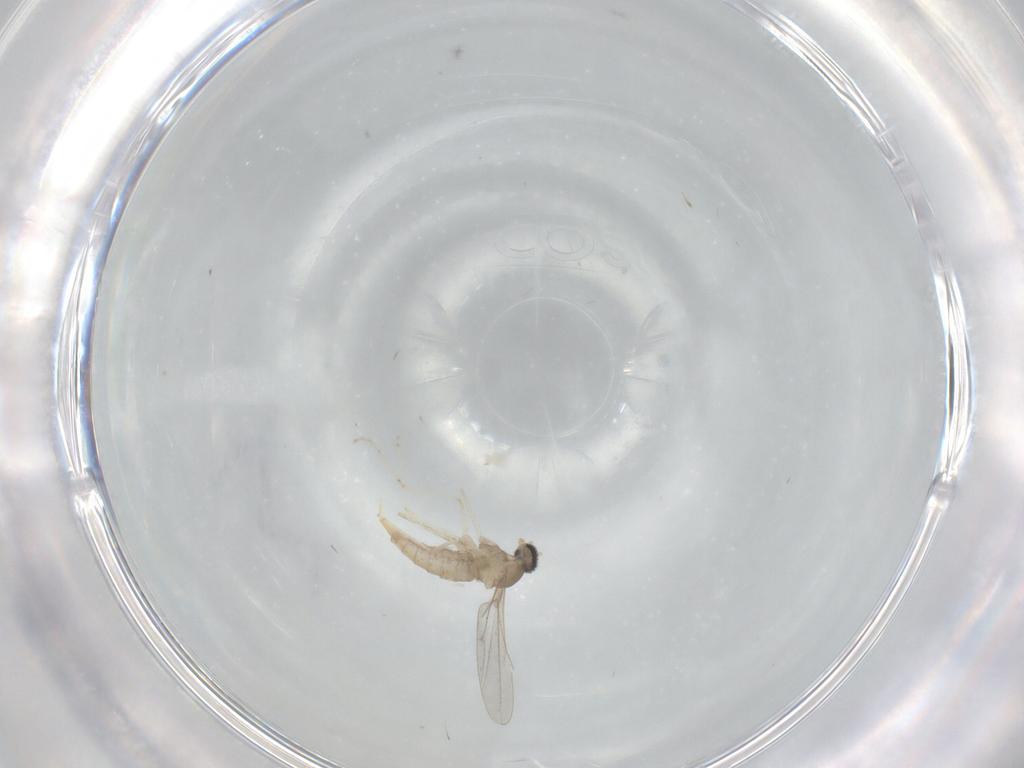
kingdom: Animalia
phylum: Arthropoda
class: Insecta
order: Diptera
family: Cecidomyiidae
